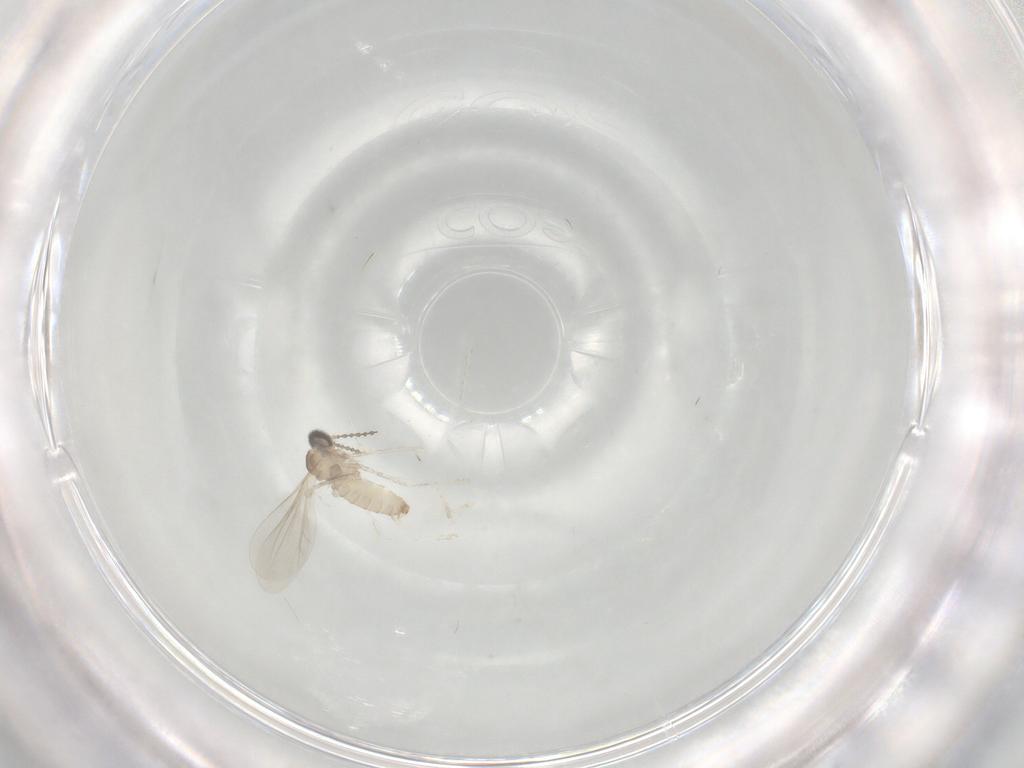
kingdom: Animalia
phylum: Arthropoda
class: Insecta
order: Diptera
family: Cecidomyiidae
